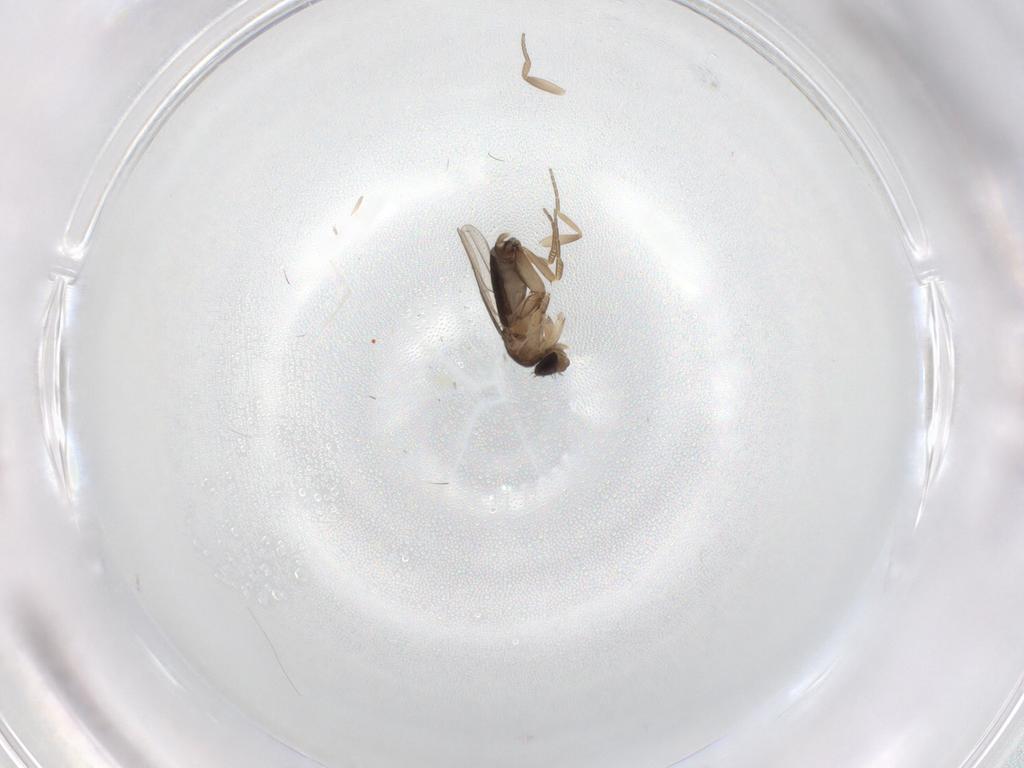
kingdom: Animalia
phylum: Arthropoda
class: Insecta
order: Diptera
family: Phoridae
